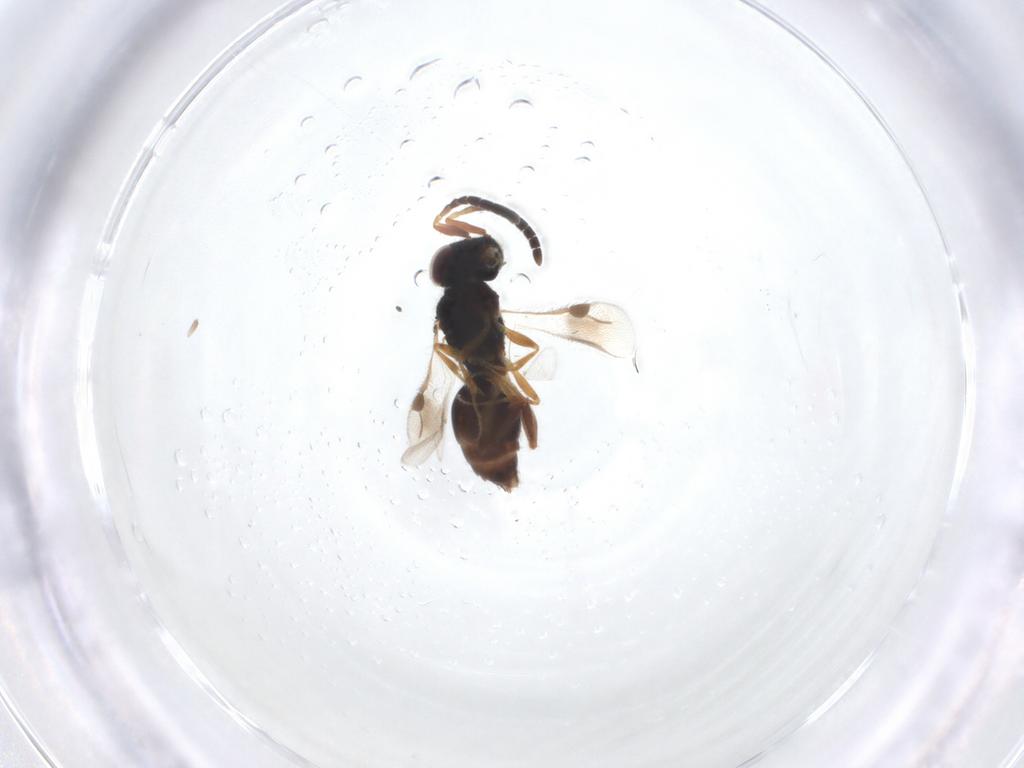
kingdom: Animalia
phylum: Arthropoda
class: Insecta
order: Hymenoptera
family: Megaspilidae
